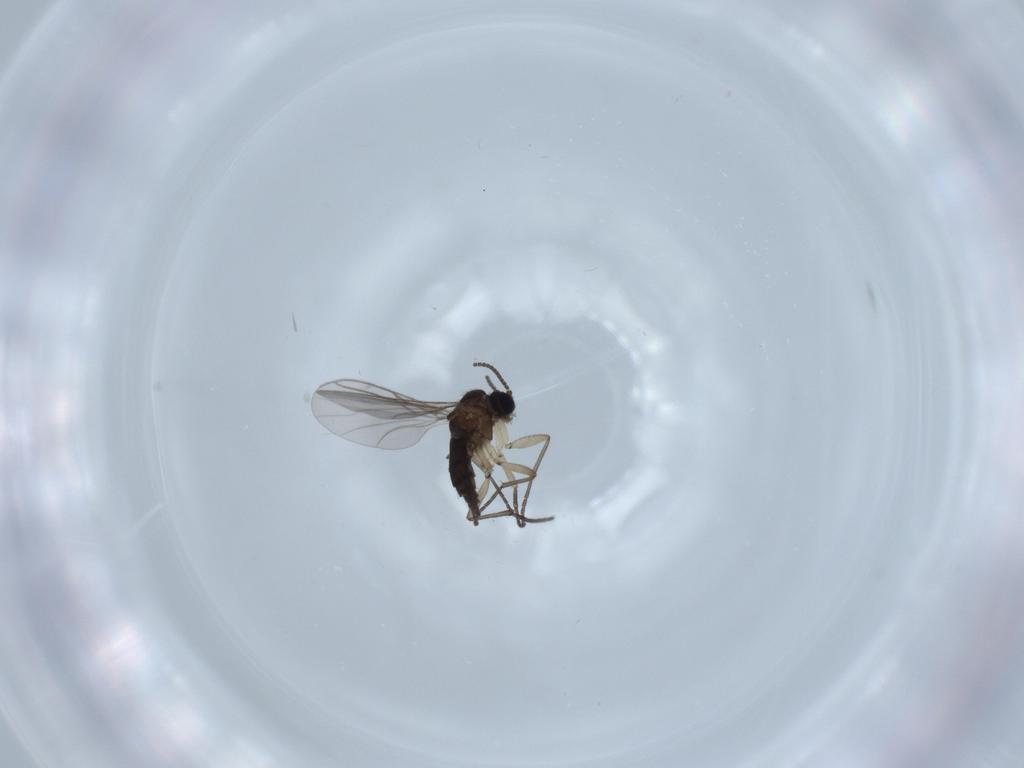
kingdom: Animalia
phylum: Arthropoda
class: Insecta
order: Diptera
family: Sciaridae
